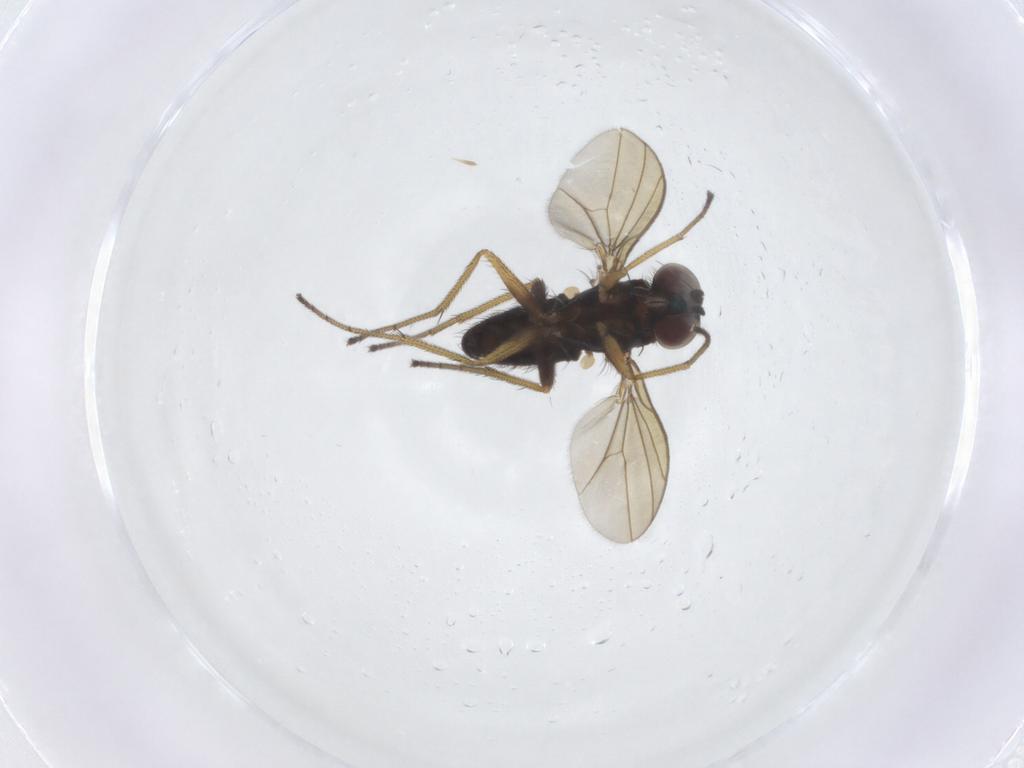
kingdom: Animalia
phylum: Arthropoda
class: Insecta
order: Diptera
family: Dolichopodidae
